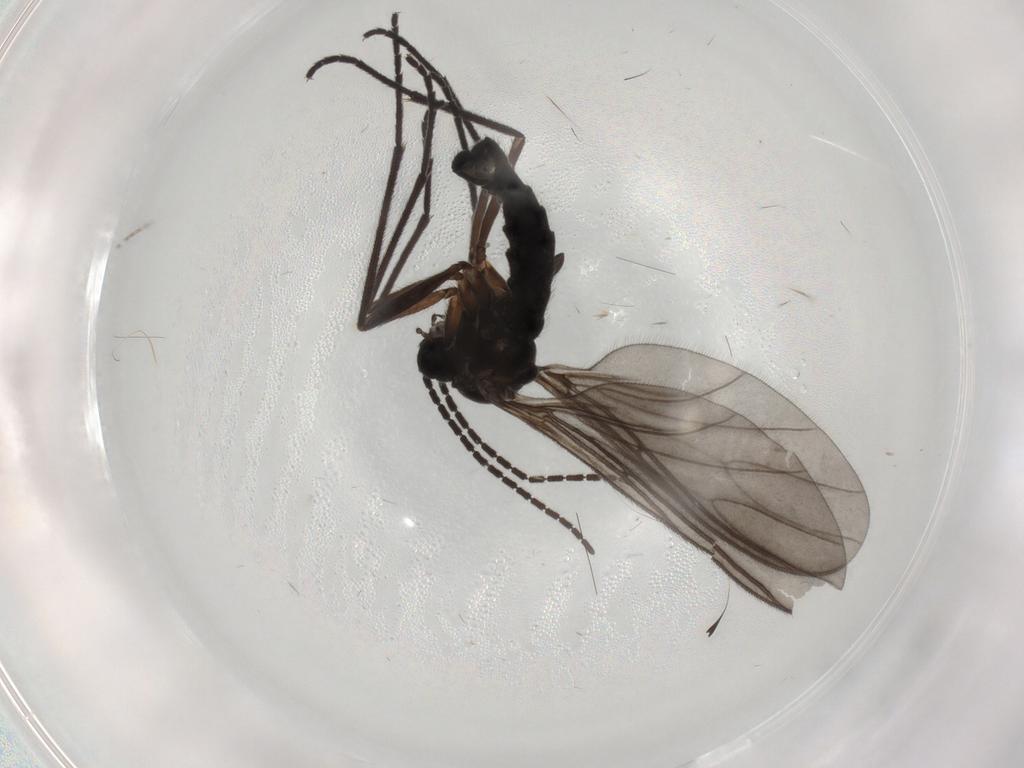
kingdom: Animalia
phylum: Arthropoda
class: Insecta
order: Diptera
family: Sciaridae
